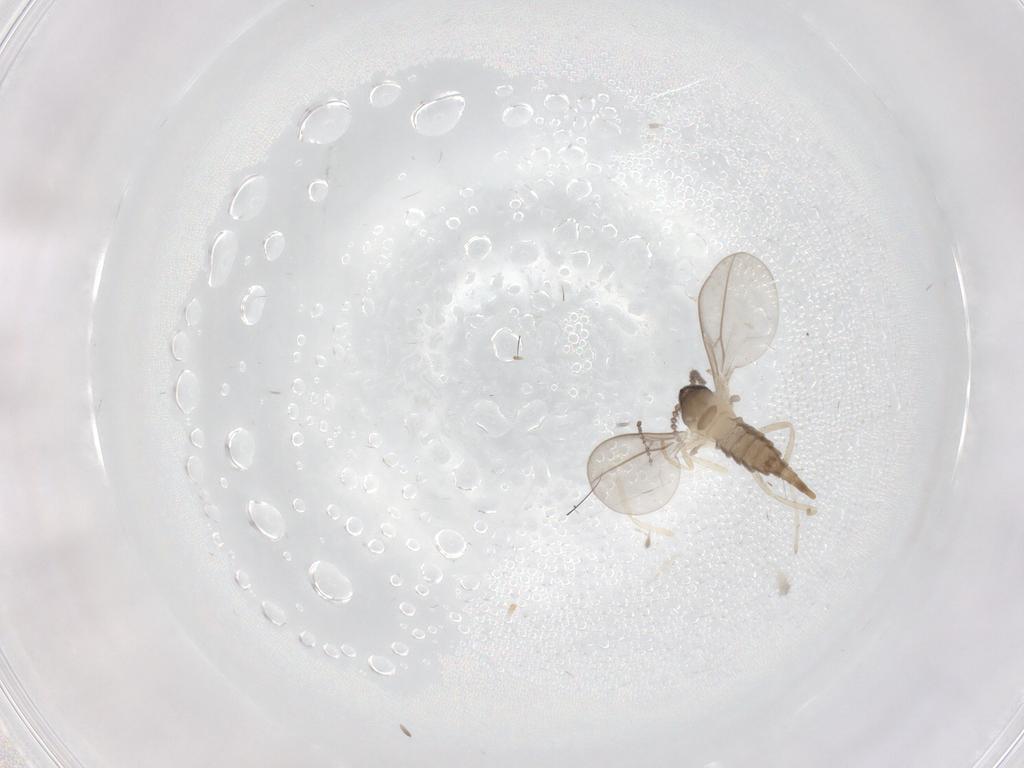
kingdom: Animalia
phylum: Arthropoda
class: Insecta
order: Diptera
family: Cecidomyiidae
